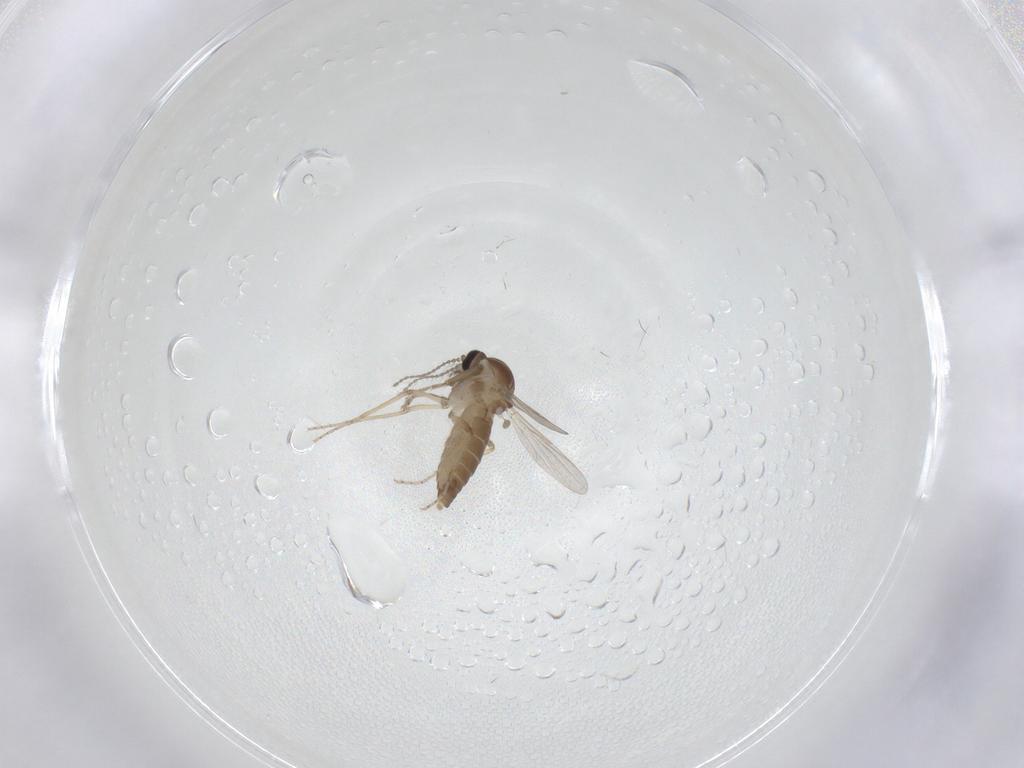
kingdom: Animalia
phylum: Arthropoda
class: Insecta
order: Diptera
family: Ceratopogonidae
